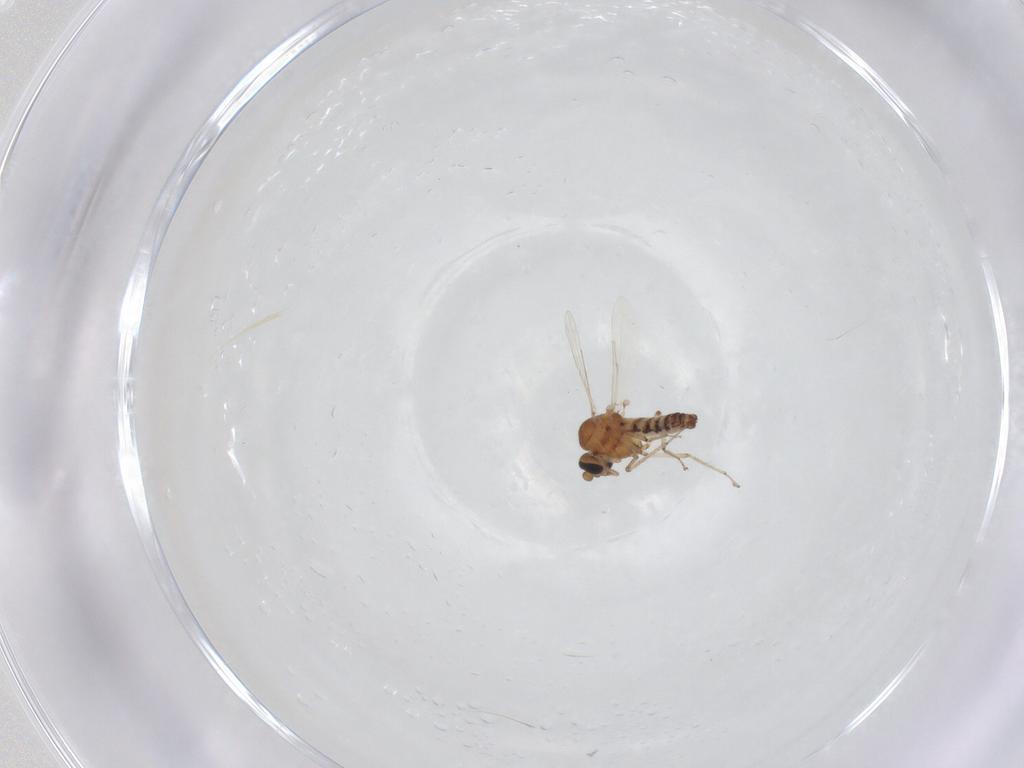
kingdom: Animalia
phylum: Arthropoda
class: Insecta
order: Diptera
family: Ceratopogonidae
